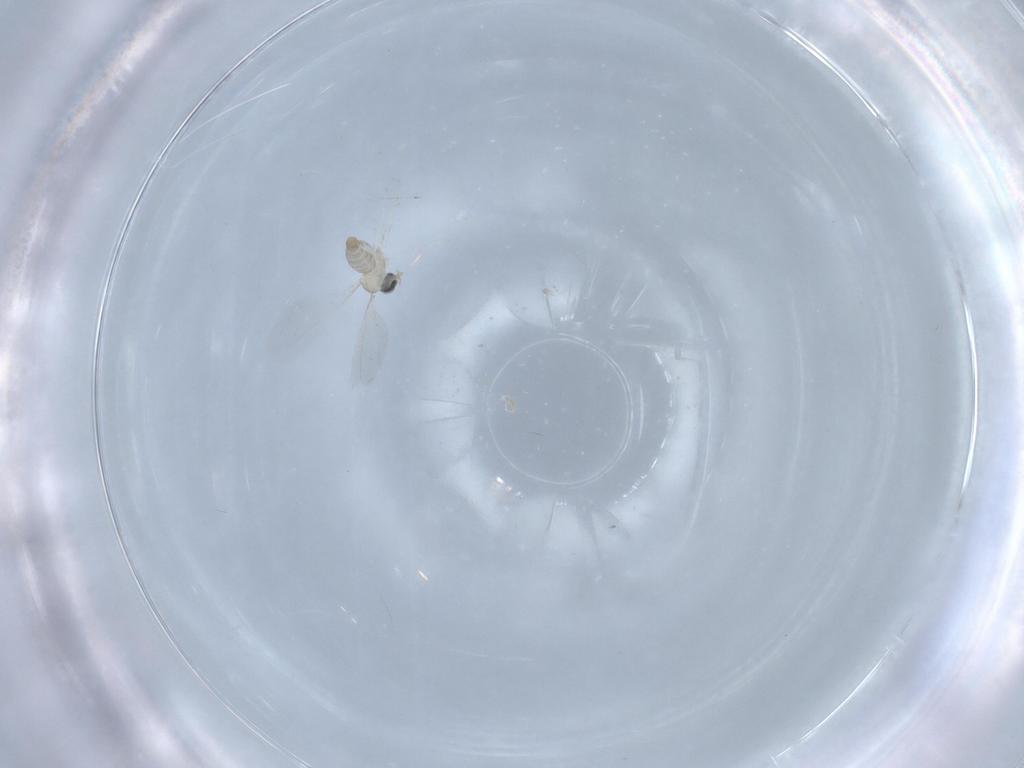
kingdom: Animalia
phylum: Arthropoda
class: Insecta
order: Diptera
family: Cecidomyiidae
